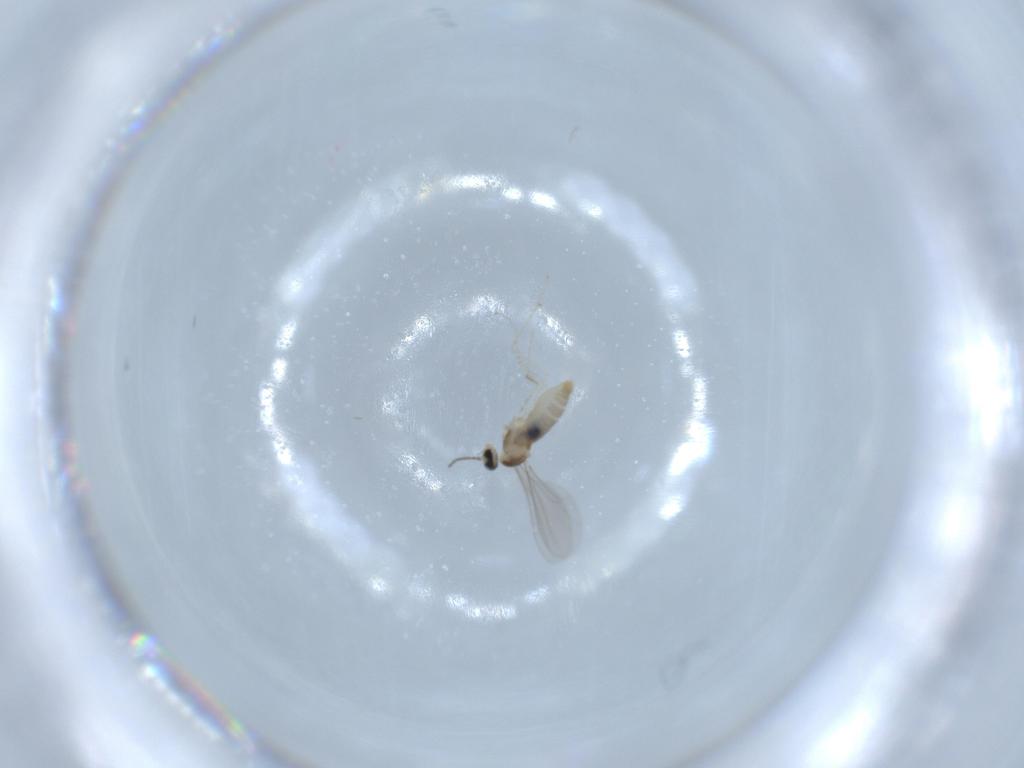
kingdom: Animalia
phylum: Arthropoda
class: Insecta
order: Diptera
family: Cecidomyiidae
